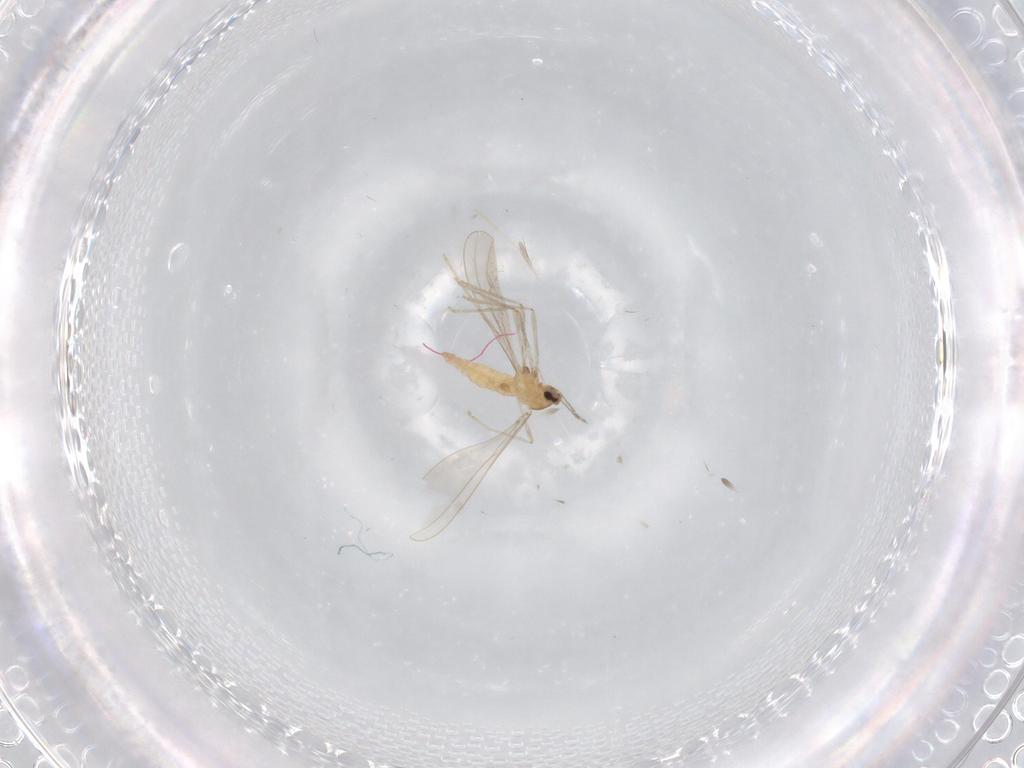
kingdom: Animalia
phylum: Arthropoda
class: Insecta
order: Diptera
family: Cecidomyiidae
